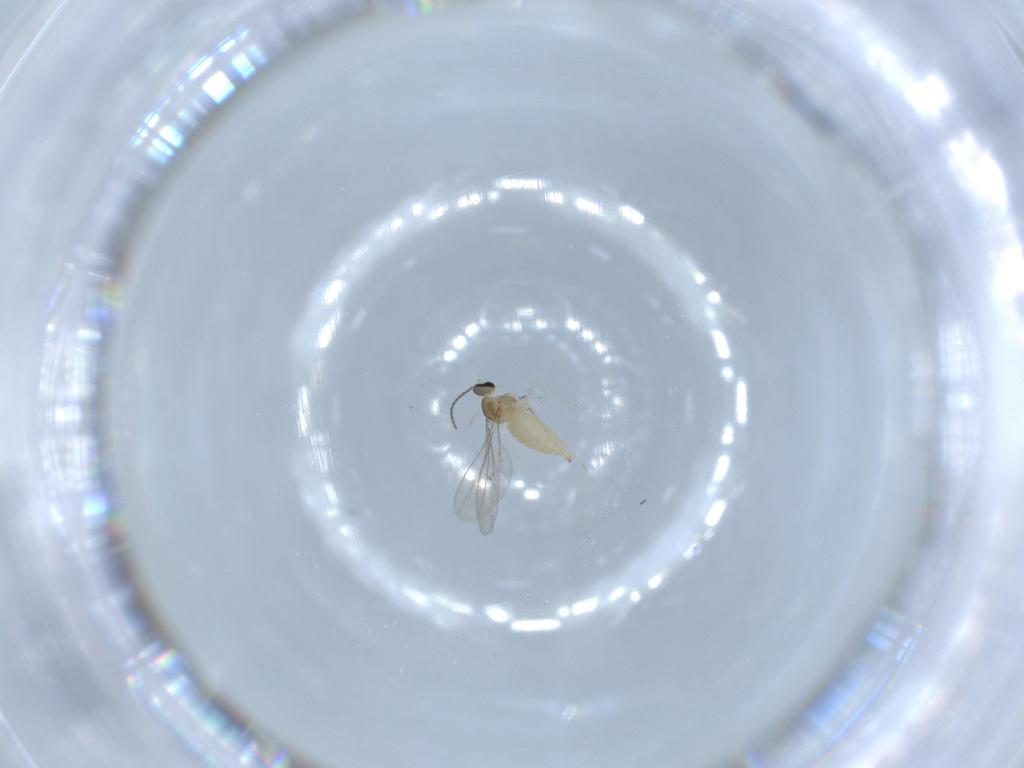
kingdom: Animalia
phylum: Arthropoda
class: Insecta
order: Diptera
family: Cecidomyiidae
